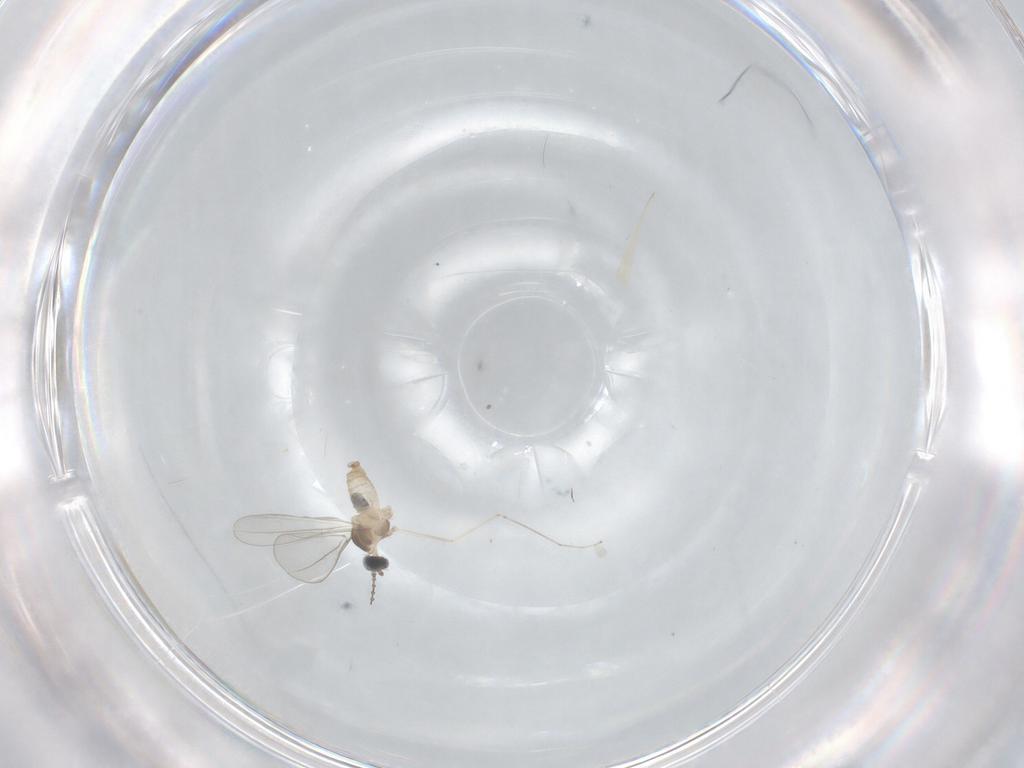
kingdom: Animalia
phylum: Arthropoda
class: Insecta
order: Diptera
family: Cecidomyiidae
